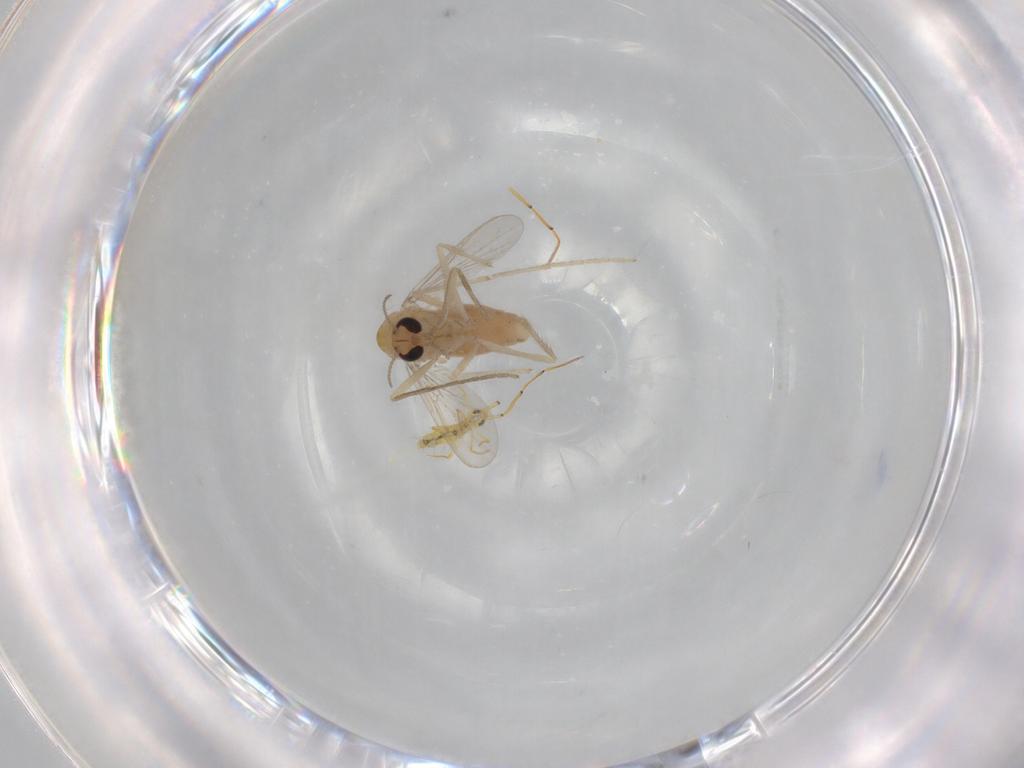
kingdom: Animalia
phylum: Arthropoda
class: Insecta
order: Diptera
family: Chironomidae
